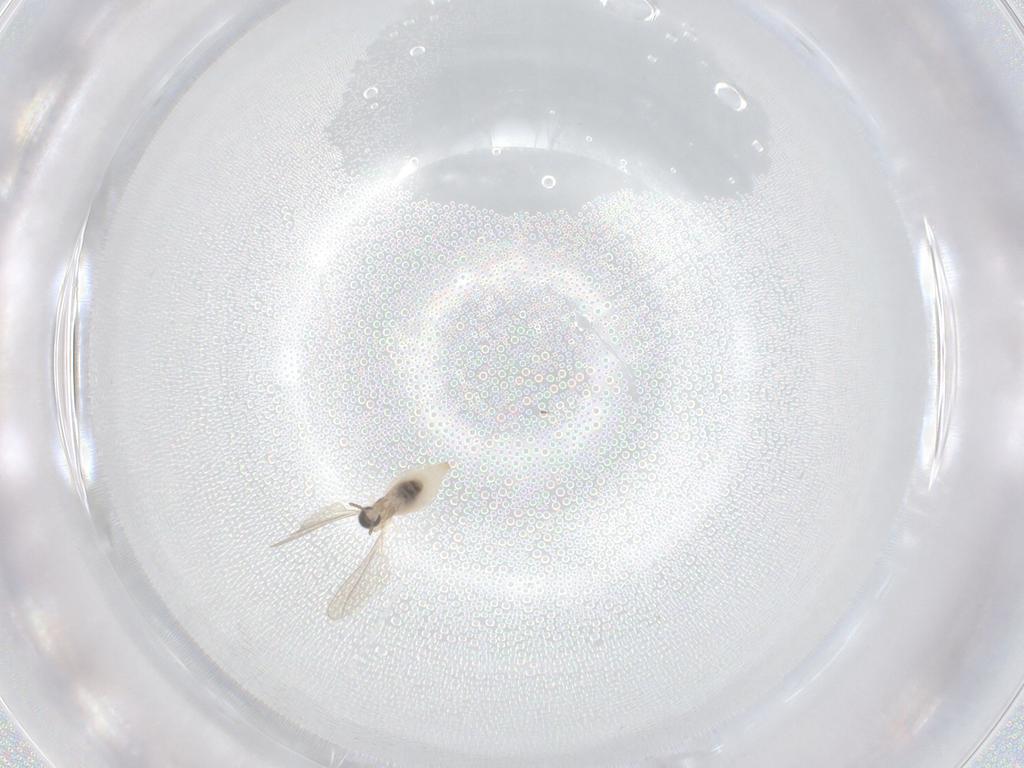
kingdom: Animalia
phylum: Arthropoda
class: Insecta
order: Diptera
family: Cecidomyiidae
